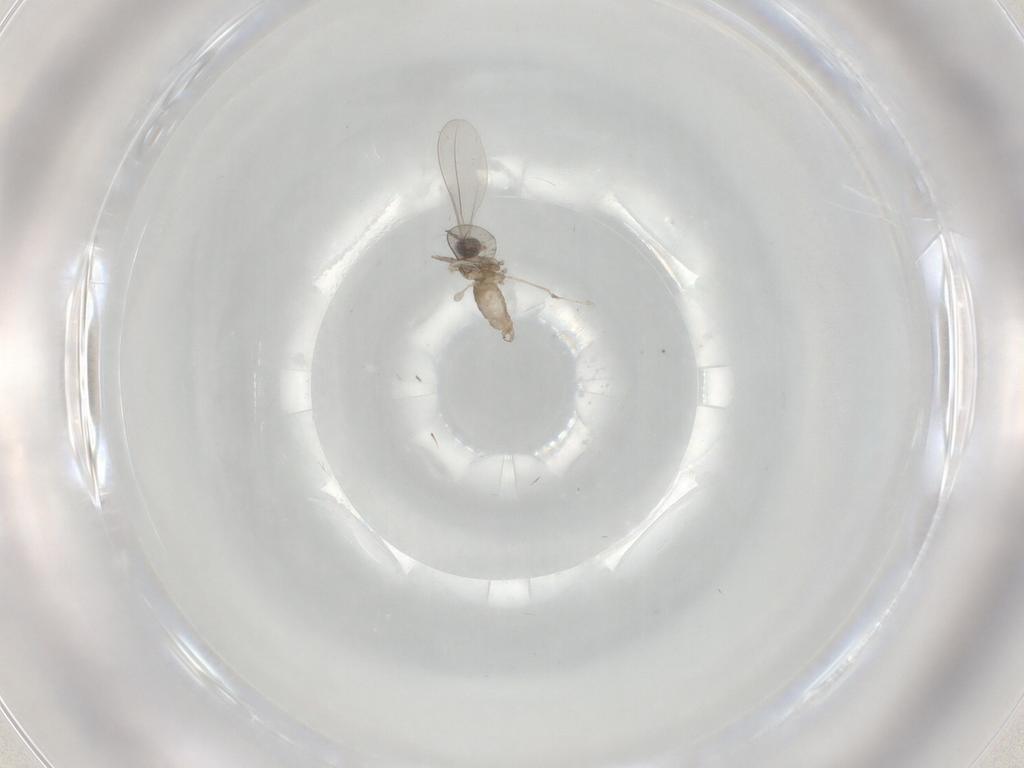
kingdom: Animalia
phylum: Arthropoda
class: Insecta
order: Diptera
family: Cecidomyiidae
